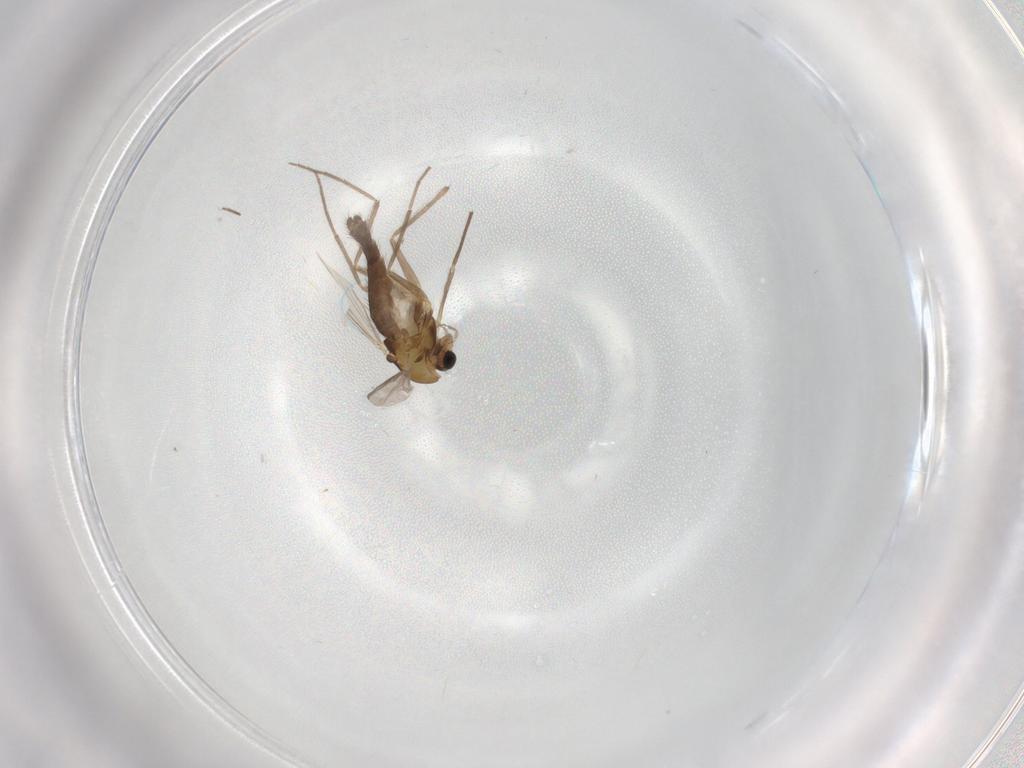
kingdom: Animalia
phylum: Arthropoda
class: Insecta
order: Diptera
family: Chironomidae
